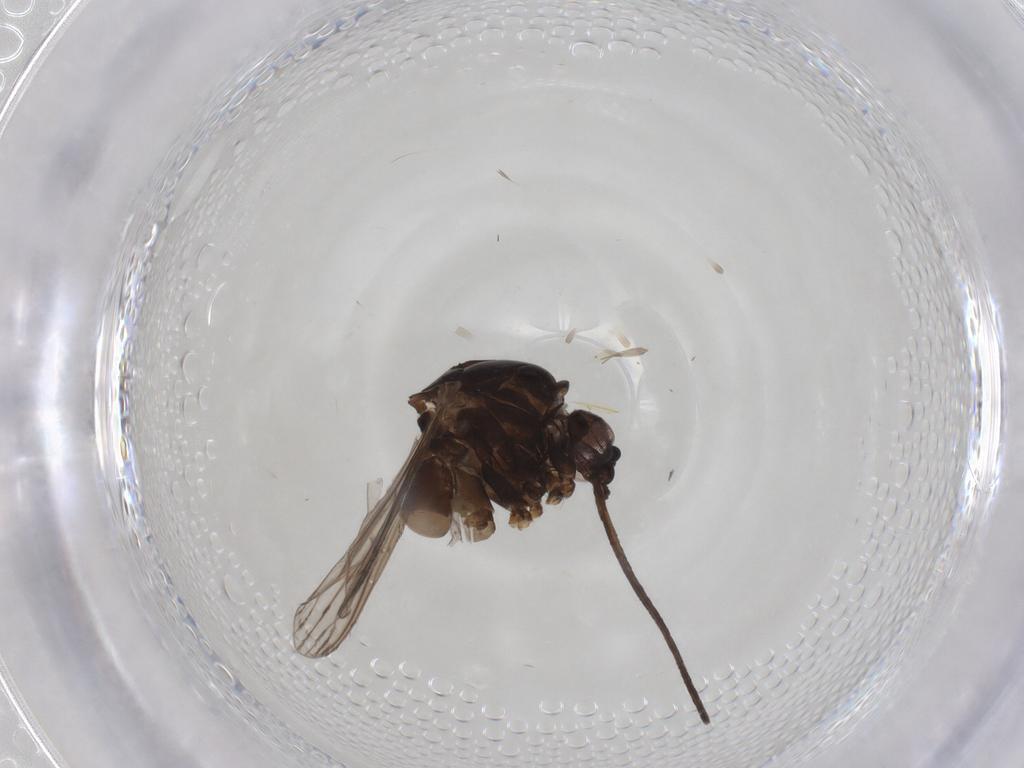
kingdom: Animalia
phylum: Arthropoda
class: Insecta
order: Diptera
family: Culicidae
